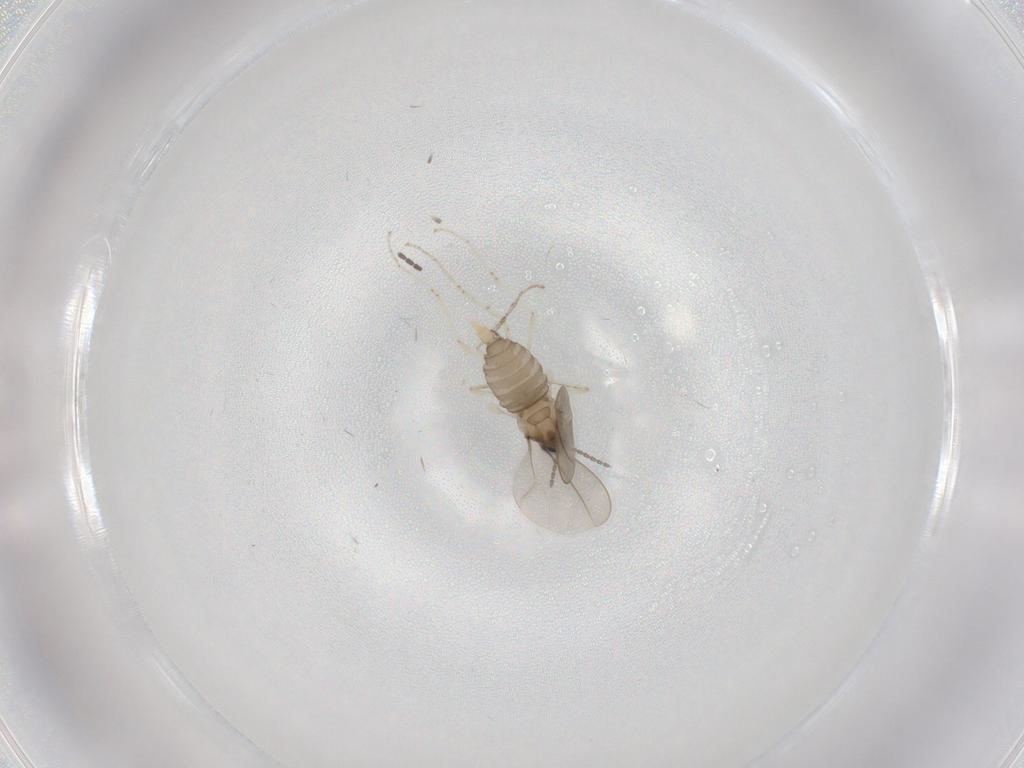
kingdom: Animalia
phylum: Arthropoda
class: Insecta
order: Diptera
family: Cecidomyiidae
